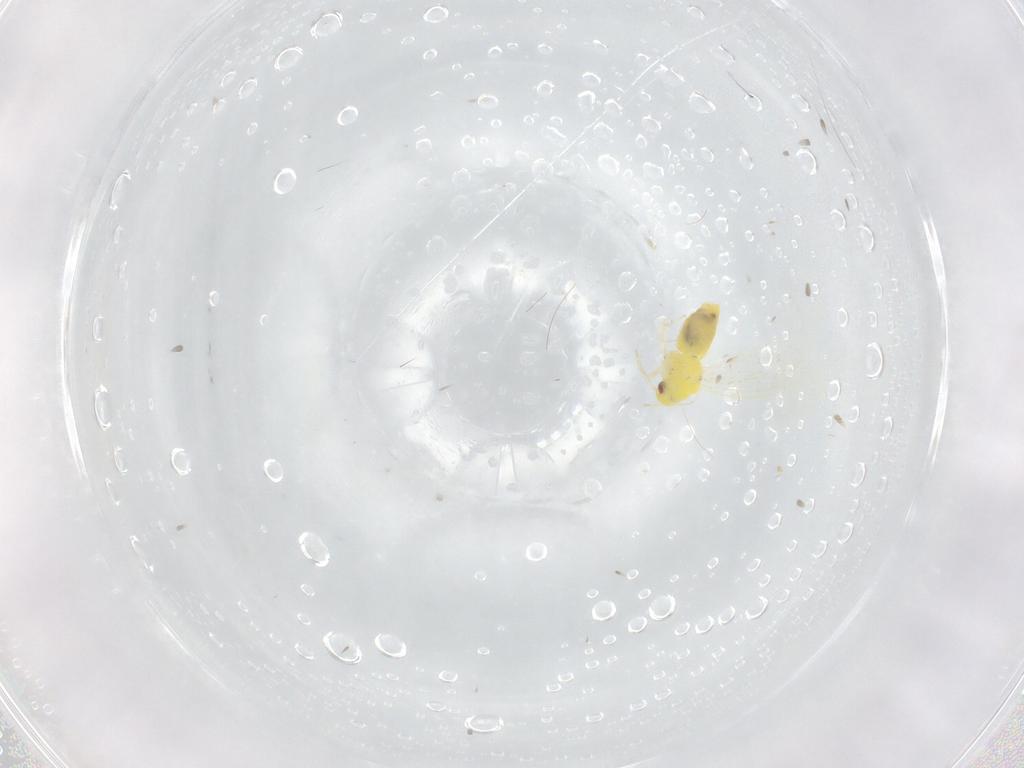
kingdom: Animalia
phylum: Arthropoda
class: Insecta
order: Hemiptera
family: Aleyrodidae
